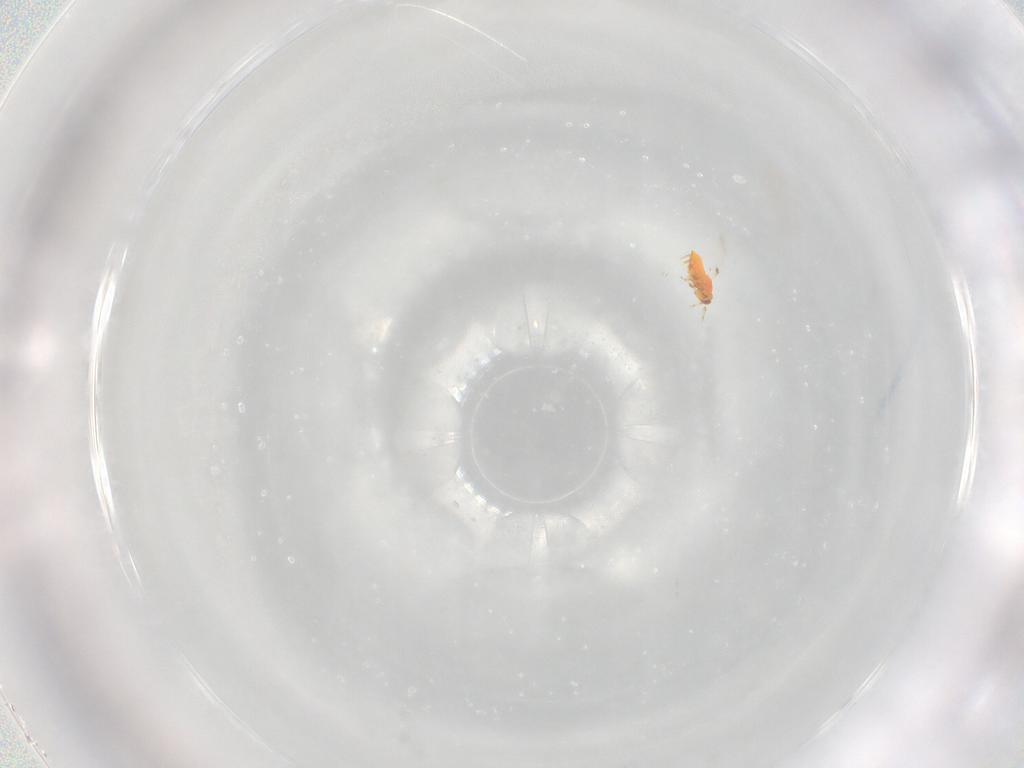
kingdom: Animalia
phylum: Arthropoda
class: Insecta
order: Hymenoptera
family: Trichogrammatidae
